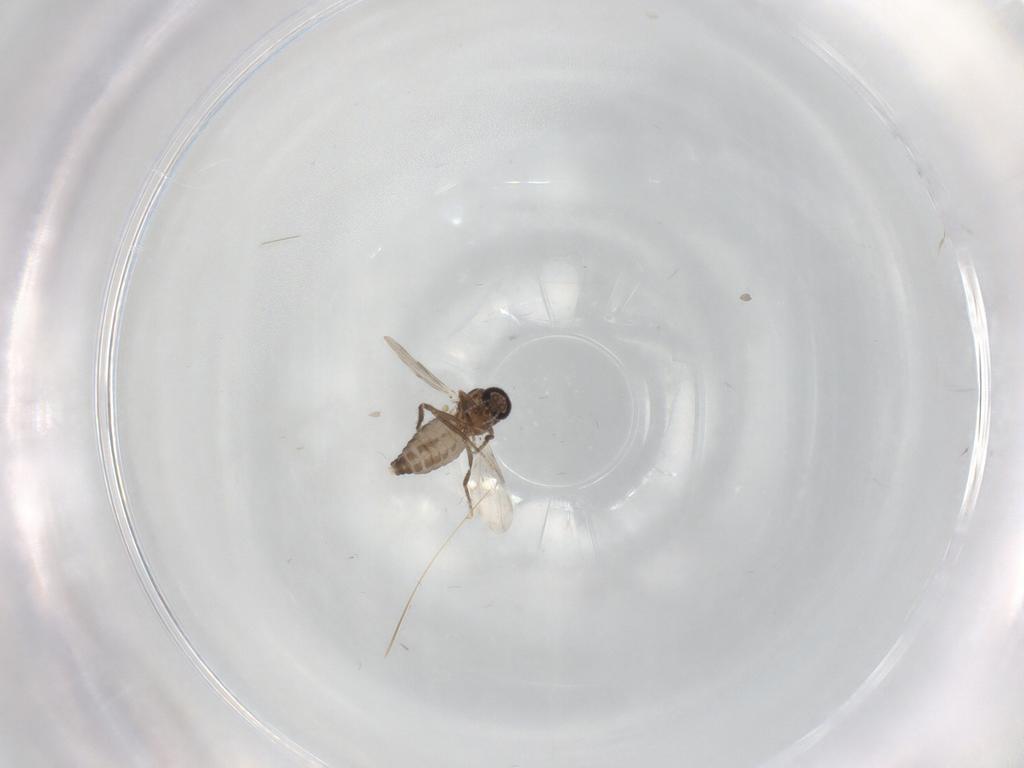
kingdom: Animalia
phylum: Arthropoda
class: Insecta
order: Diptera
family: Ceratopogonidae
